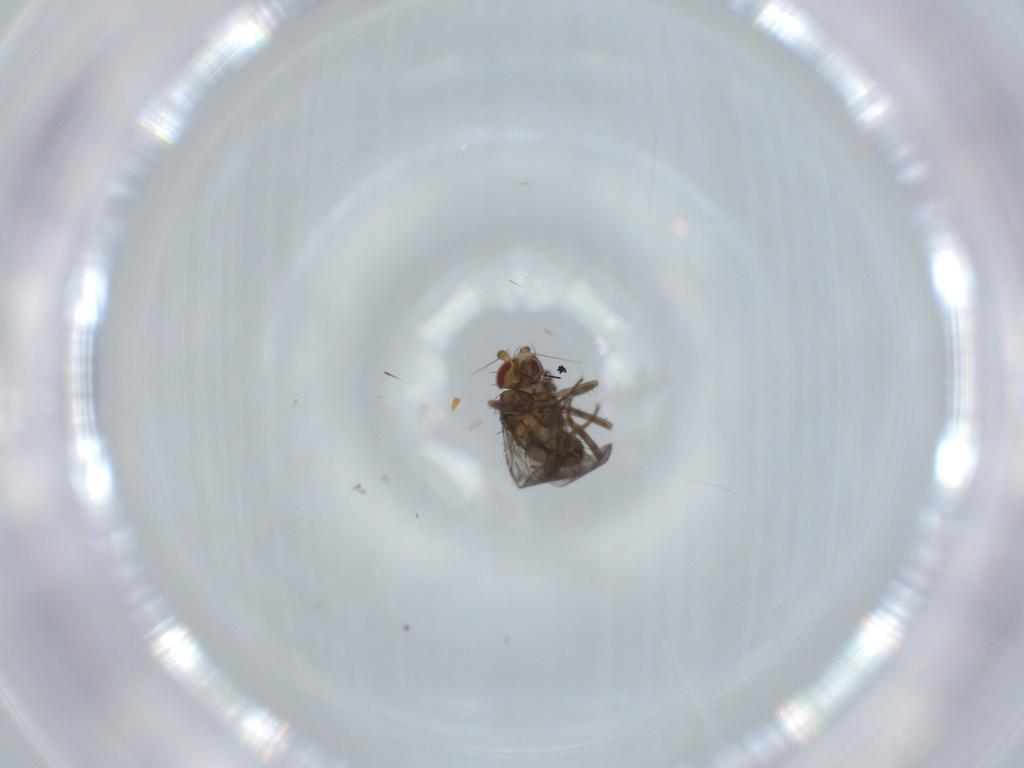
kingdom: Animalia
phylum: Arthropoda
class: Insecta
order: Diptera
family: Sphaeroceridae
